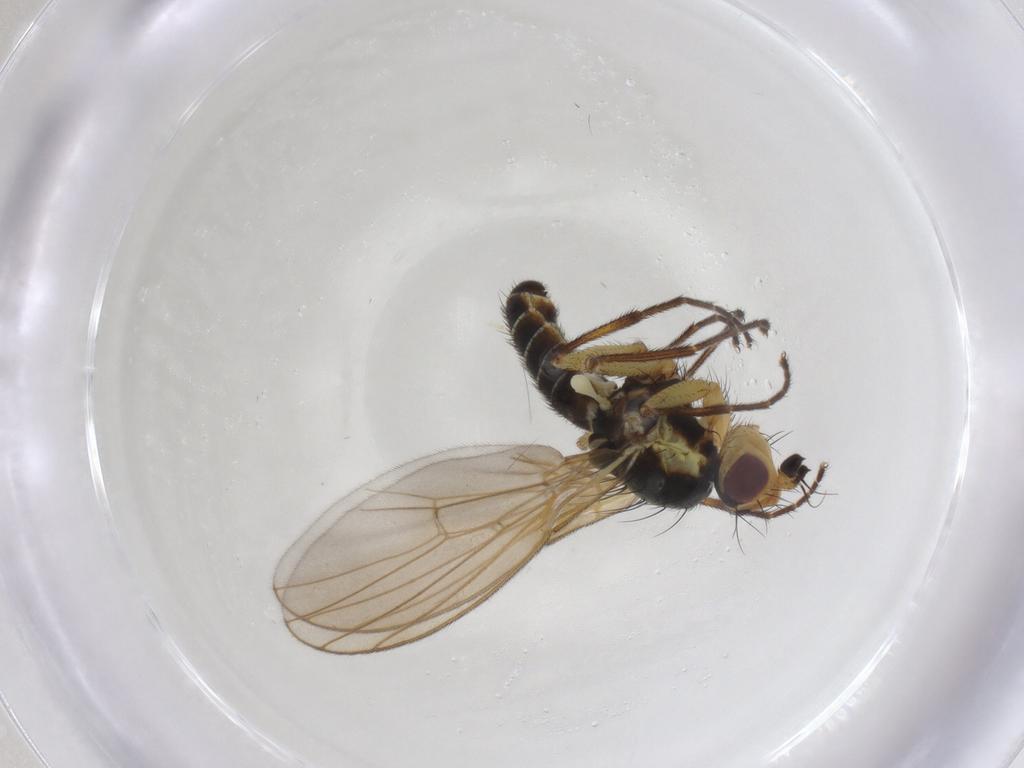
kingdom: Animalia
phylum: Arthropoda
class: Insecta
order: Diptera
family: Agromyzidae
